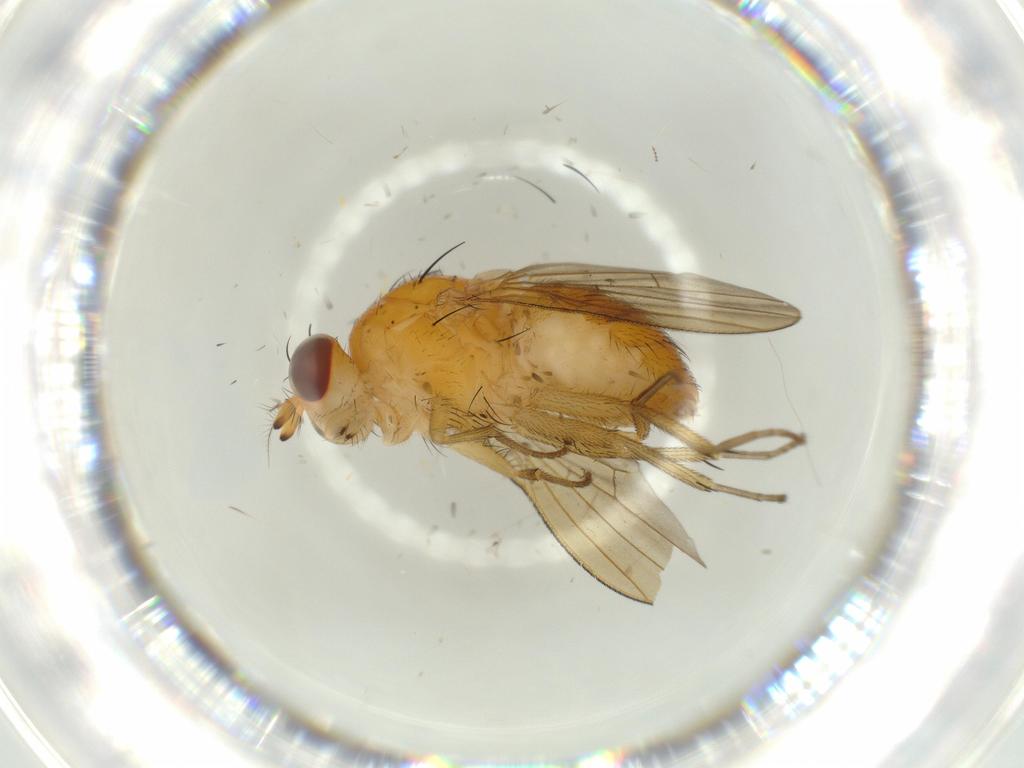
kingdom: Animalia
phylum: Arthropoda
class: Insecta
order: Diptera
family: Lauxaniidae
